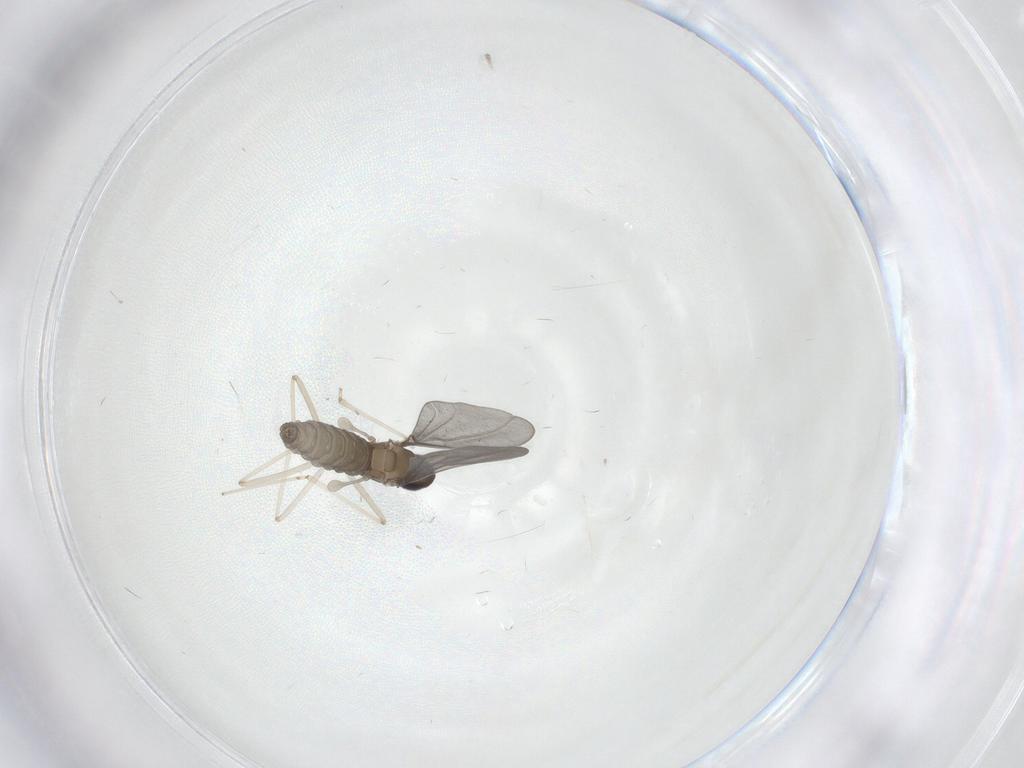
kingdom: Animalia
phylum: Arthropoda
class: Insecta
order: Diptera
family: Cecidomyiidae
